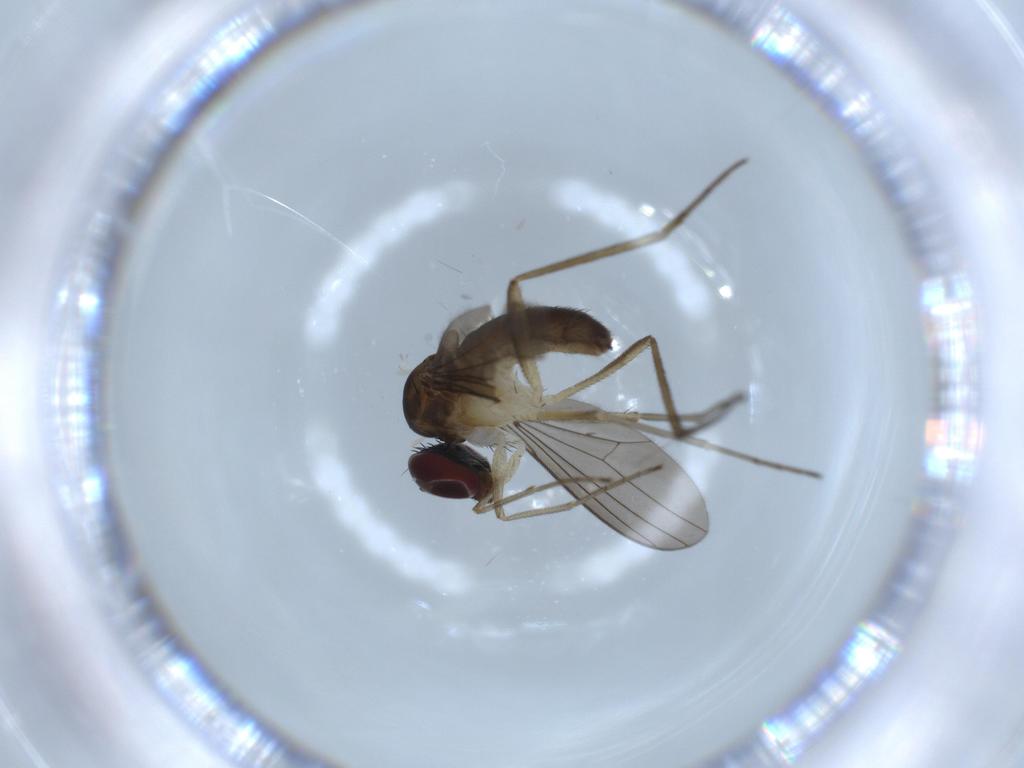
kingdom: Animalia
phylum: Arthropoda
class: Insecta
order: Diptera
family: Dolichopodidae
